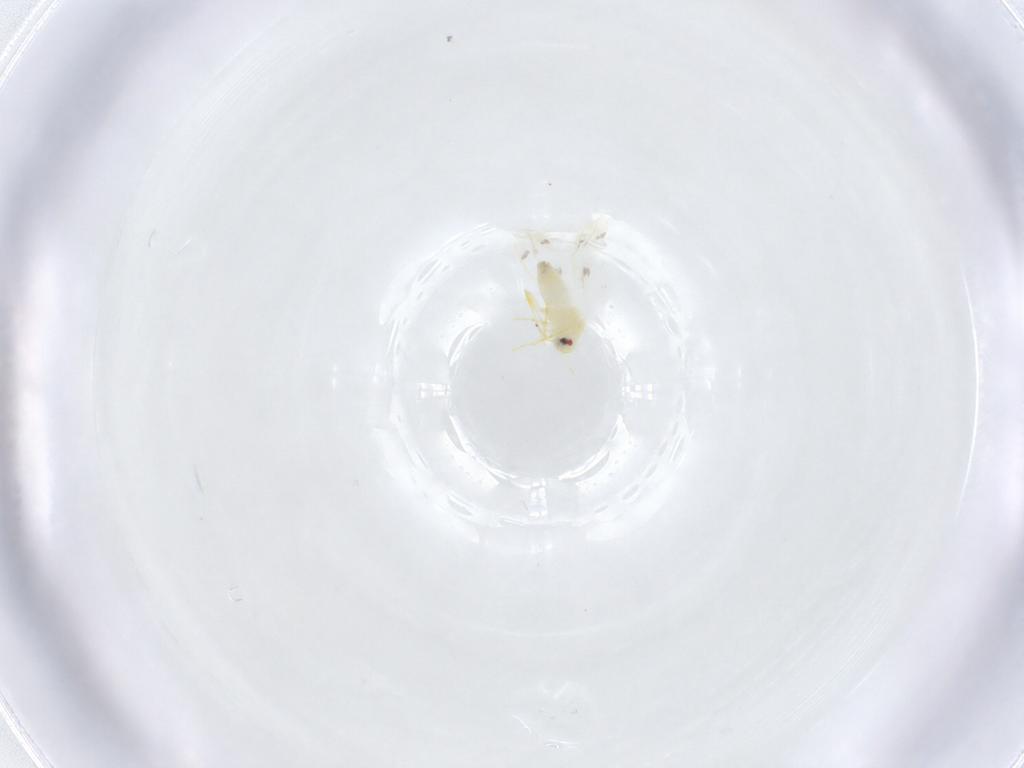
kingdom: Animalia
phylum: Arthropoda
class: Insecta
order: Hemiptera
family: Aleyrodidae
